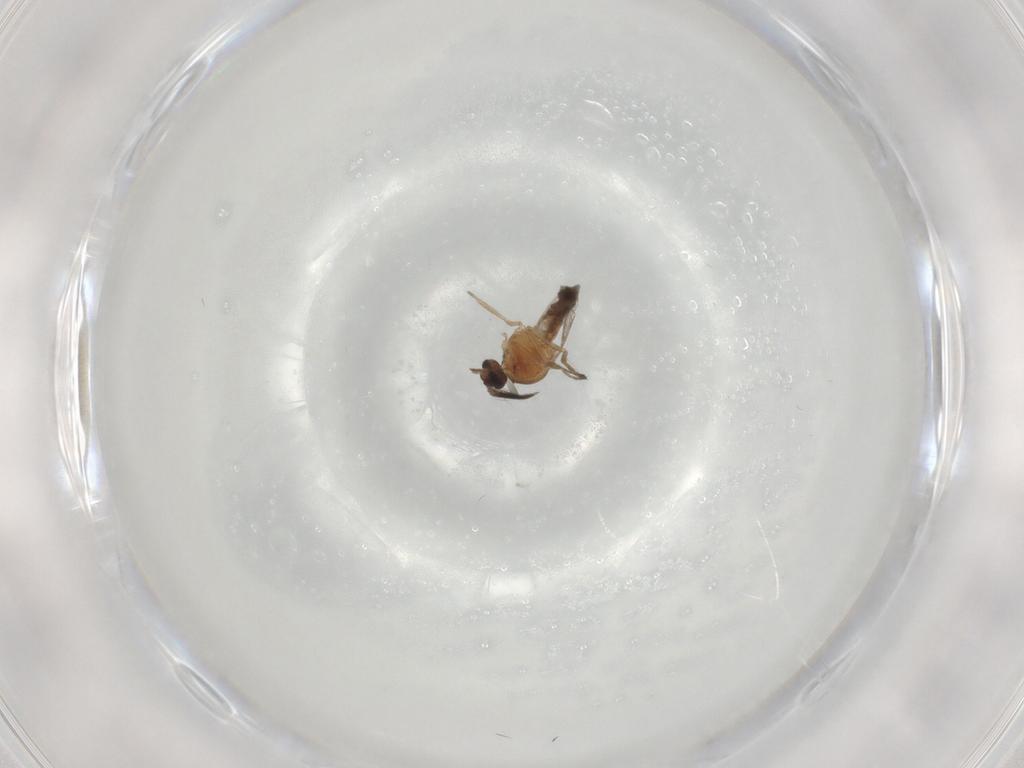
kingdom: Animalia
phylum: Arthropoda
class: Insecta
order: Diptera
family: Ceratopogonidae
